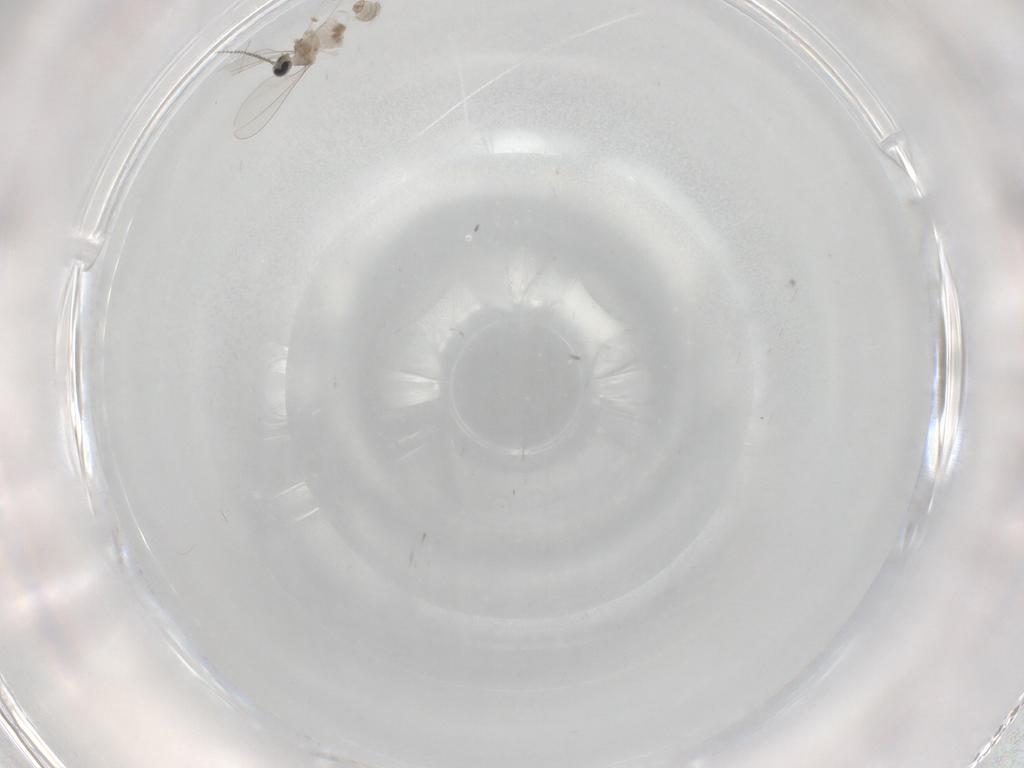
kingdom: Animalia
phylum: Arthropoda
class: Insecta
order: Diptera
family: Cecidomyiidae
